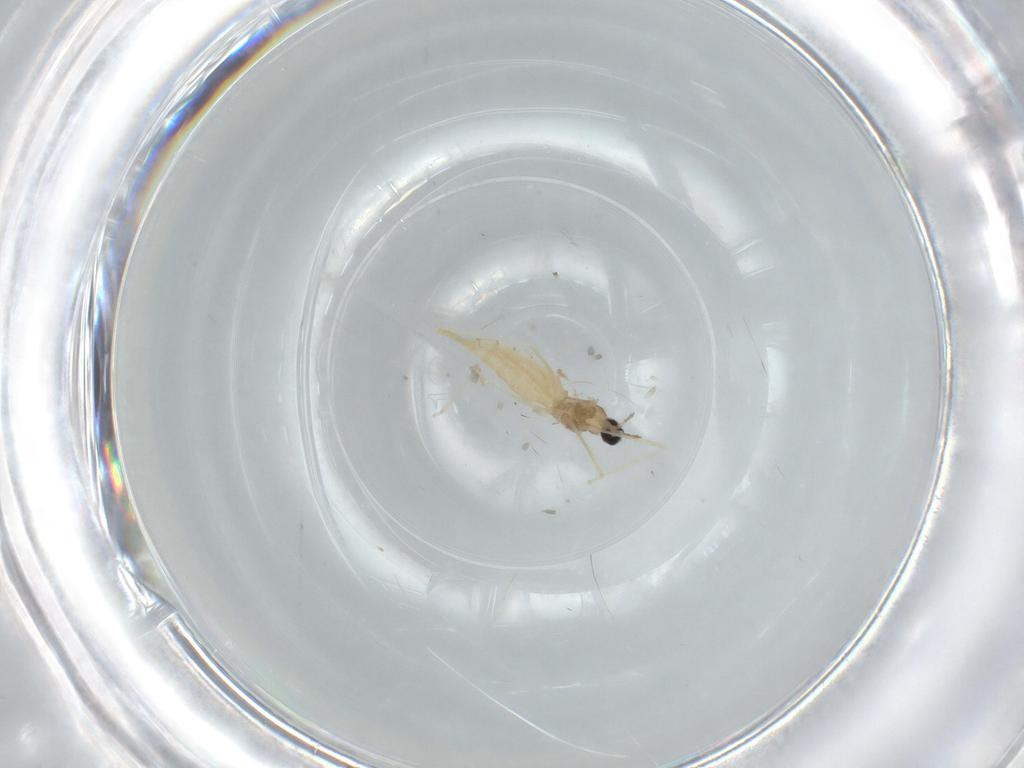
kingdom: Animalia
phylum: Arthropoda
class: Insecta
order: Diptera
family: Cecidomyiidae
